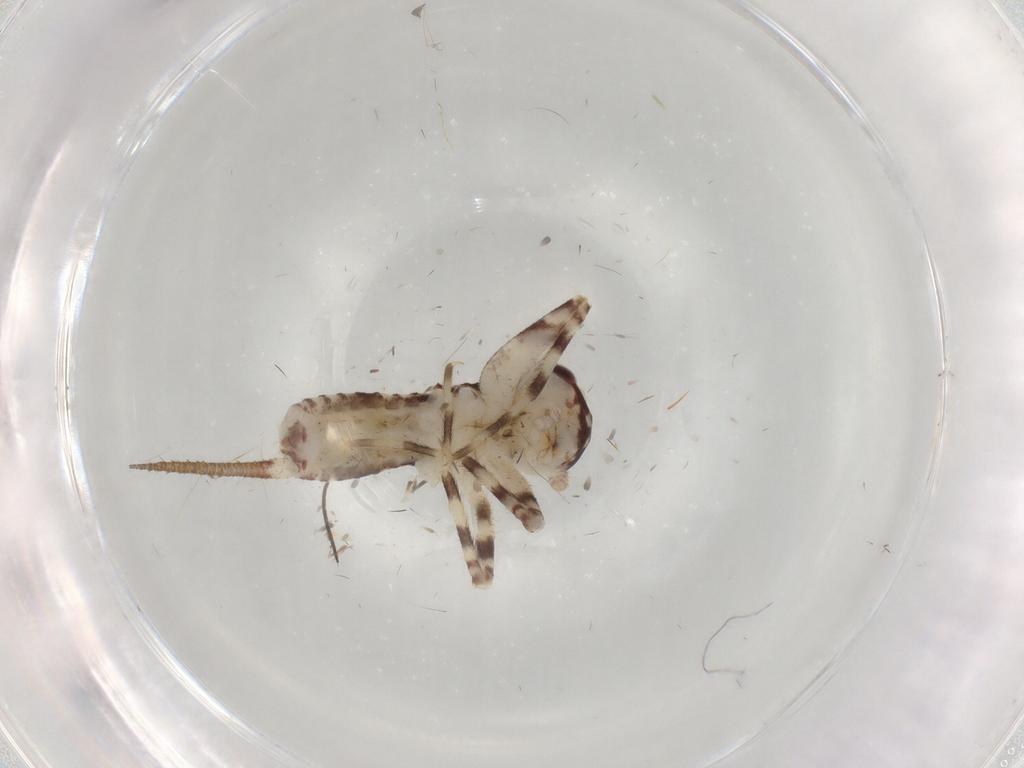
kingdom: Animalia
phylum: Arthropoda
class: Insecta
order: Orthoptera
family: Gryllidae
